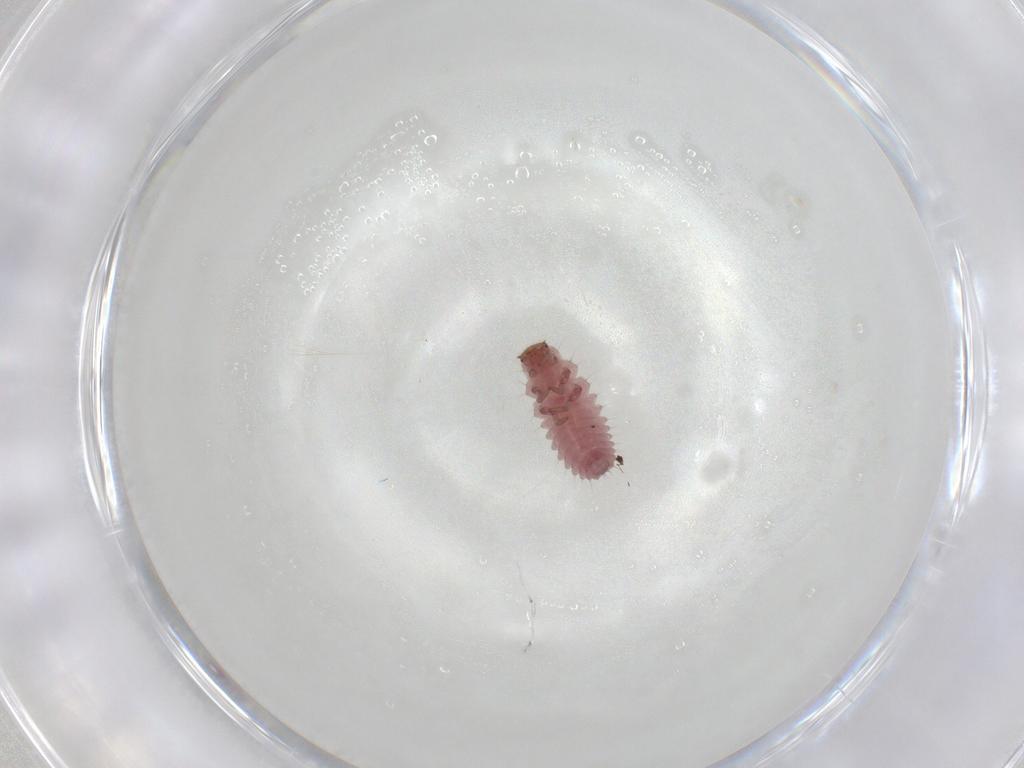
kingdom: Animalia
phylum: Arthropoda
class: Insecta
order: Coleoptera
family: Coccinellidae
